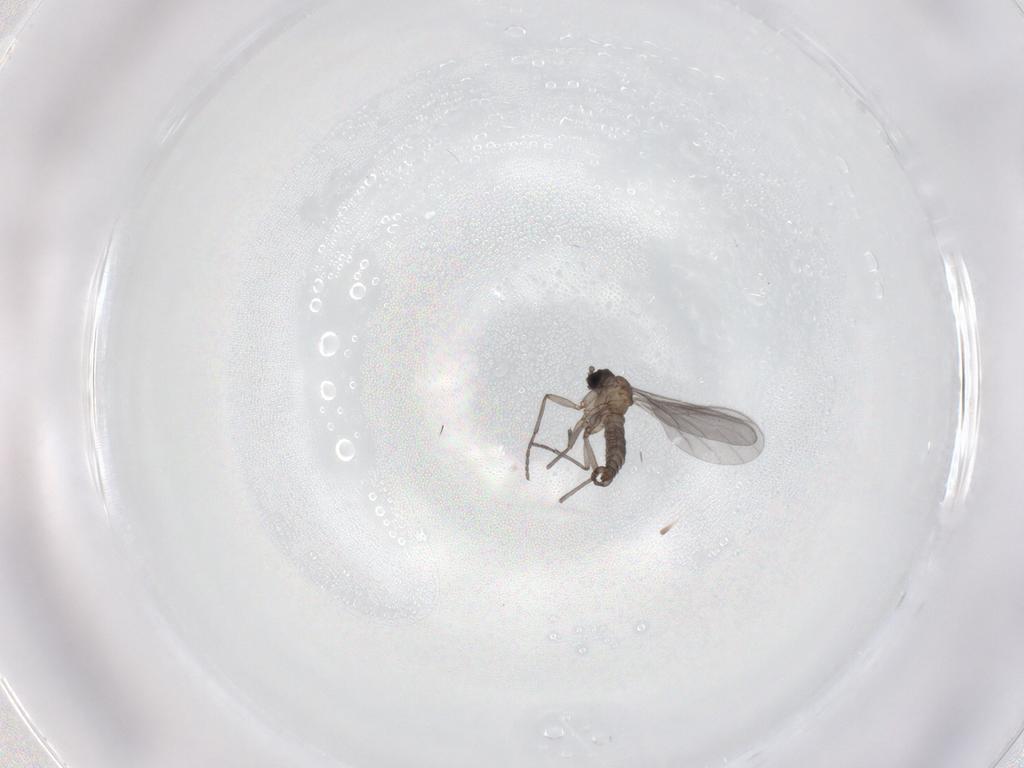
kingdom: Animalia
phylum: Arthropoda
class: Insecta
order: Diptera
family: Sciaridae
